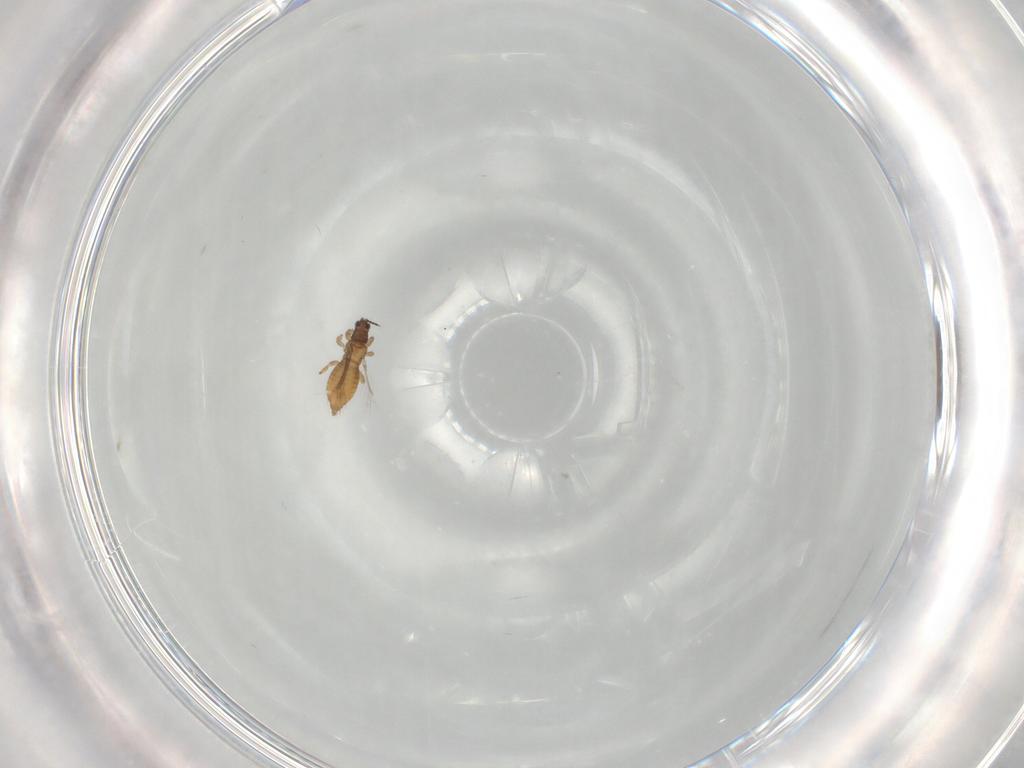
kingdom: Animalia
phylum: Arthropoda
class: Insecta
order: Thysanoptera
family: Thripidae
